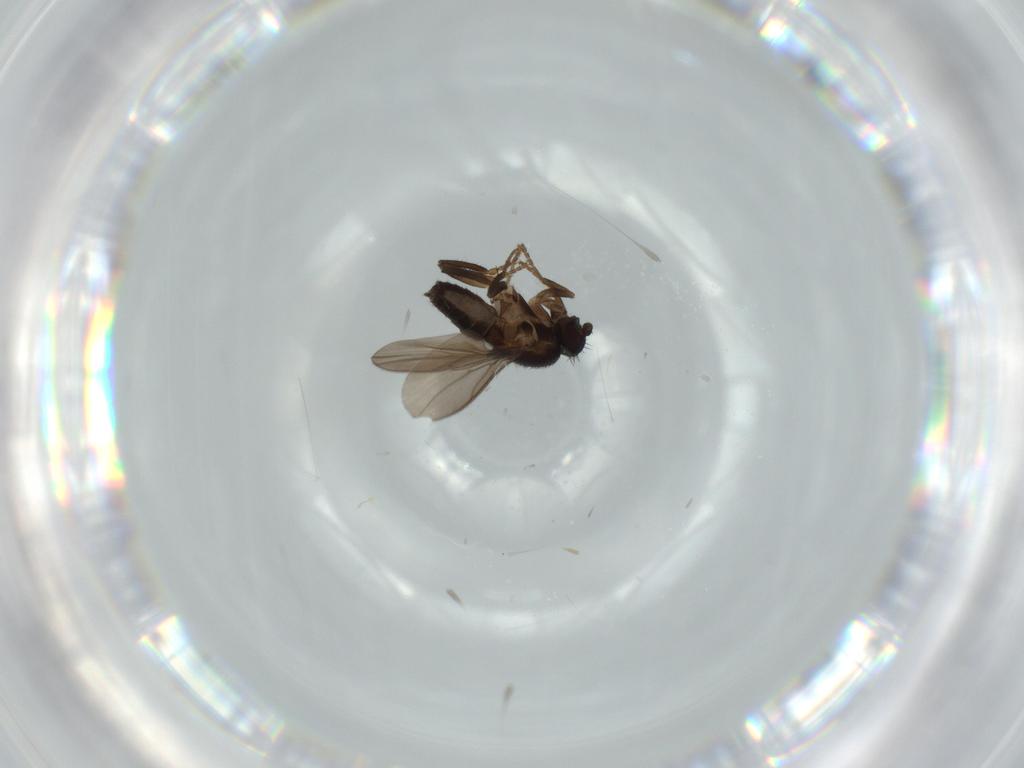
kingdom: Animalia
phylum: Arthropoda
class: Insecta
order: Diptera
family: Sphaeroceridae
